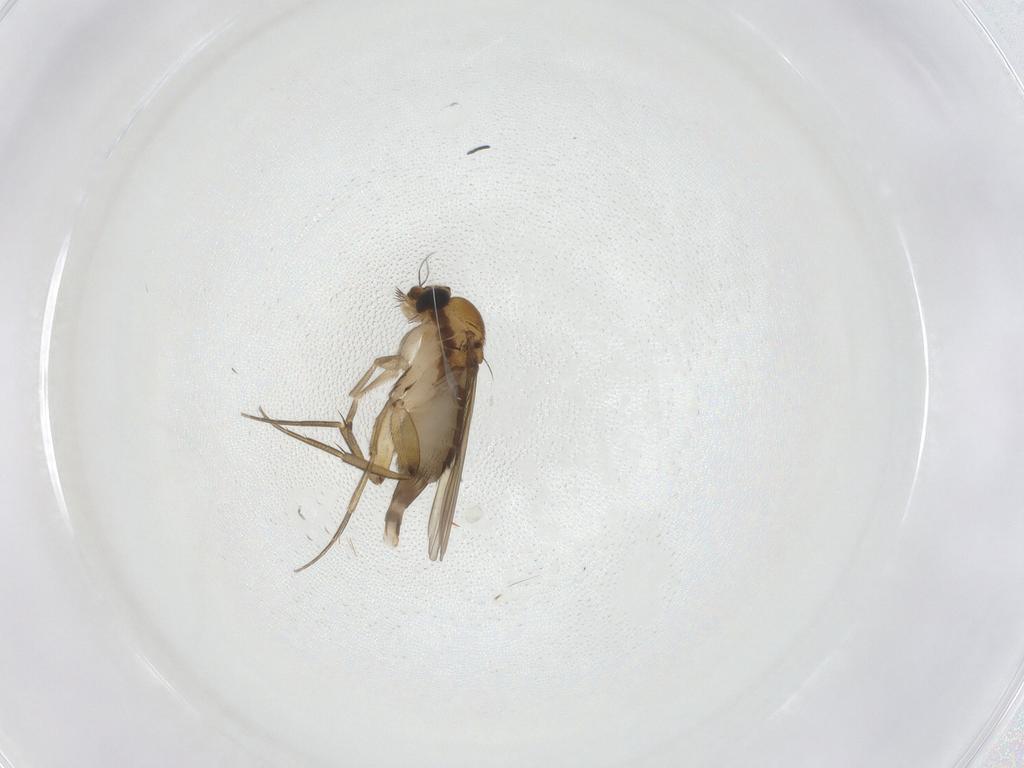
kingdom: Animalia
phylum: Arthropoda
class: Insecta
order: Diptera
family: Phoridae
